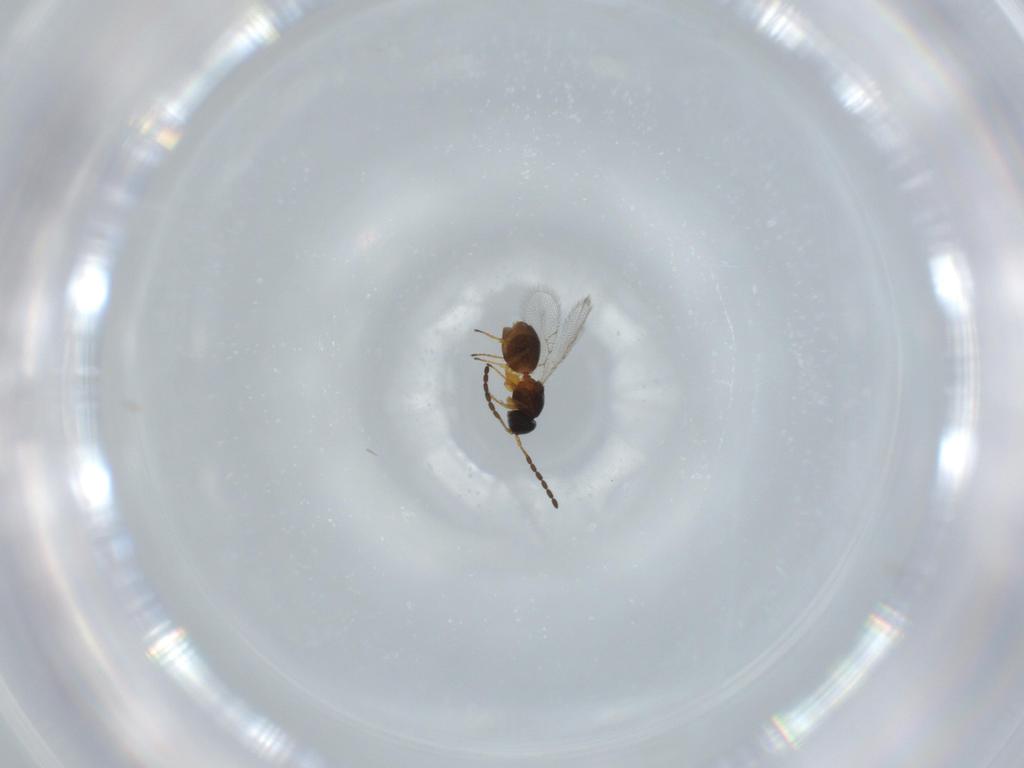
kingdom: Animalia
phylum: Arthropoda
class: Insecta
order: Hymenoptera
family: Figitidae
